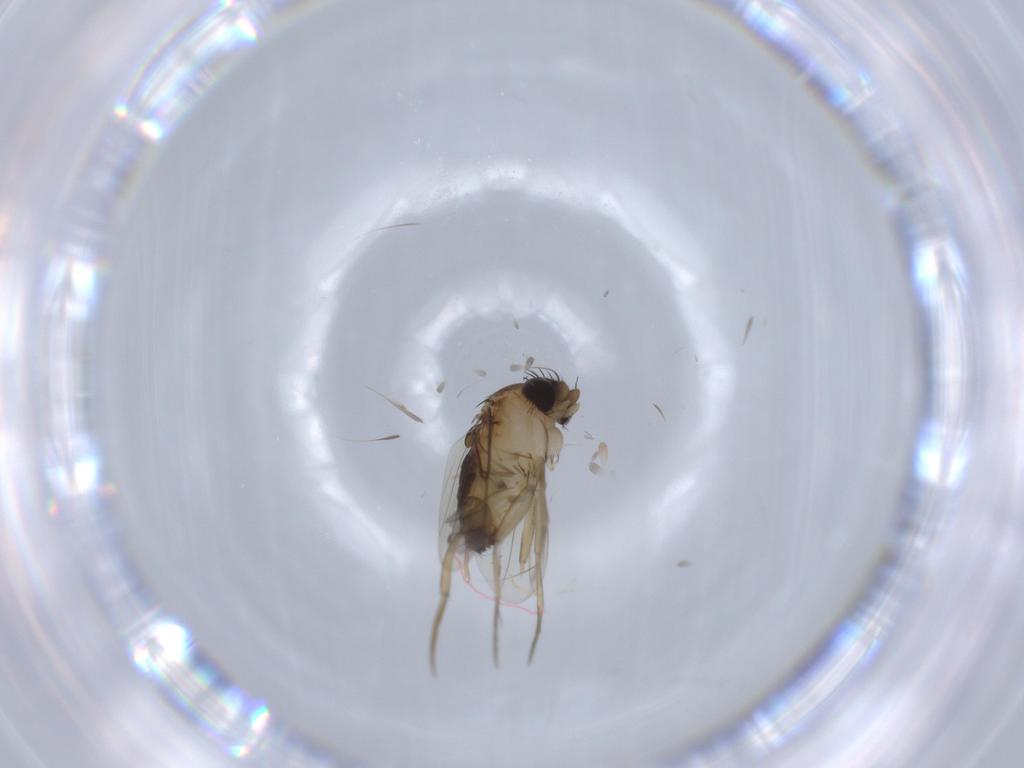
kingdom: Animalia
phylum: Arthropoda
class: Insecta
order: Diptera
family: Phoridae
